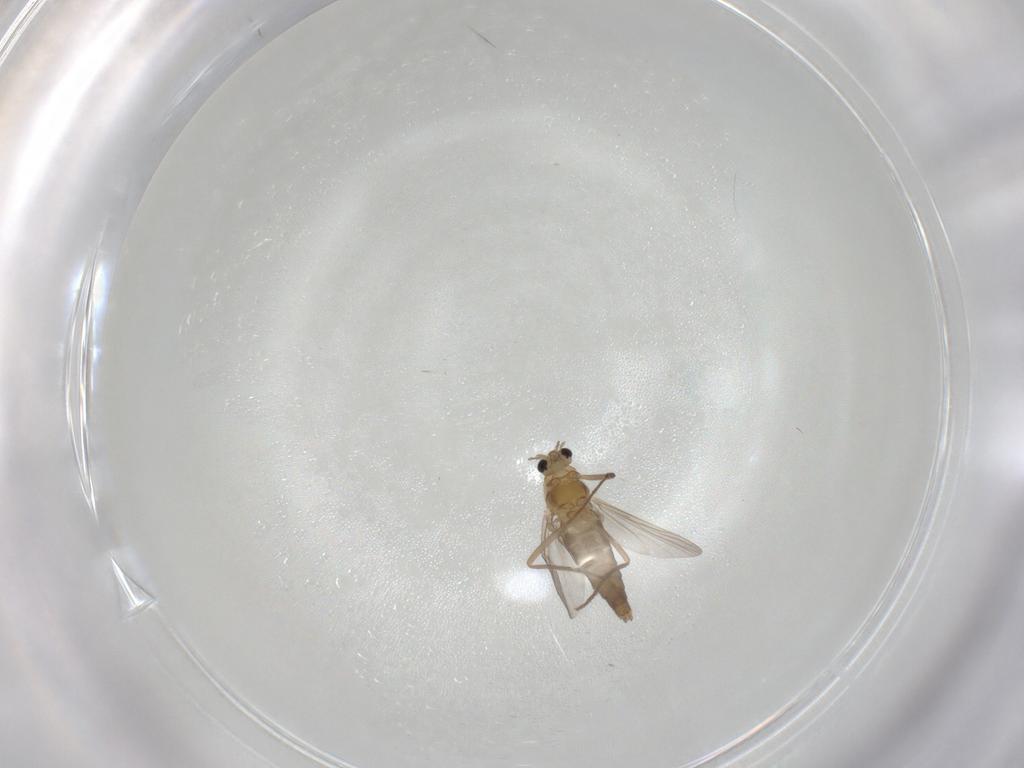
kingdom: Animalia
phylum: Arthropoda
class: Insecta
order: Diptera
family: Chironomidae
